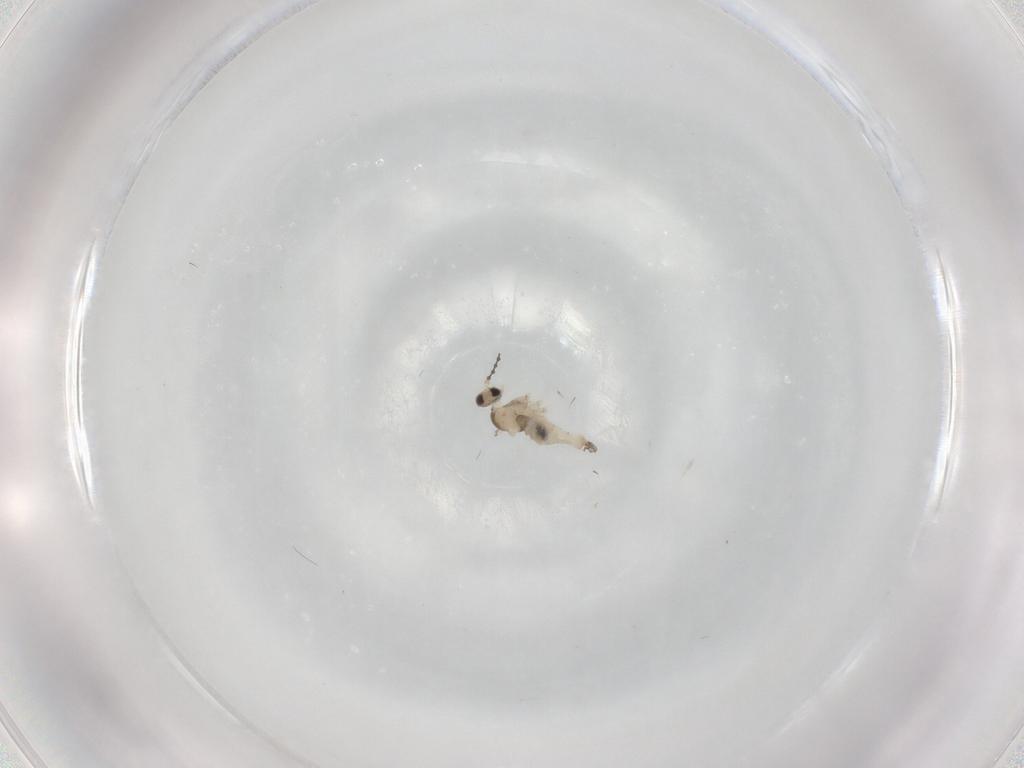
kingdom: Animalia
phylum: Arthropoda
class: Insecta
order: Diptera
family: Cecidomyiidae
